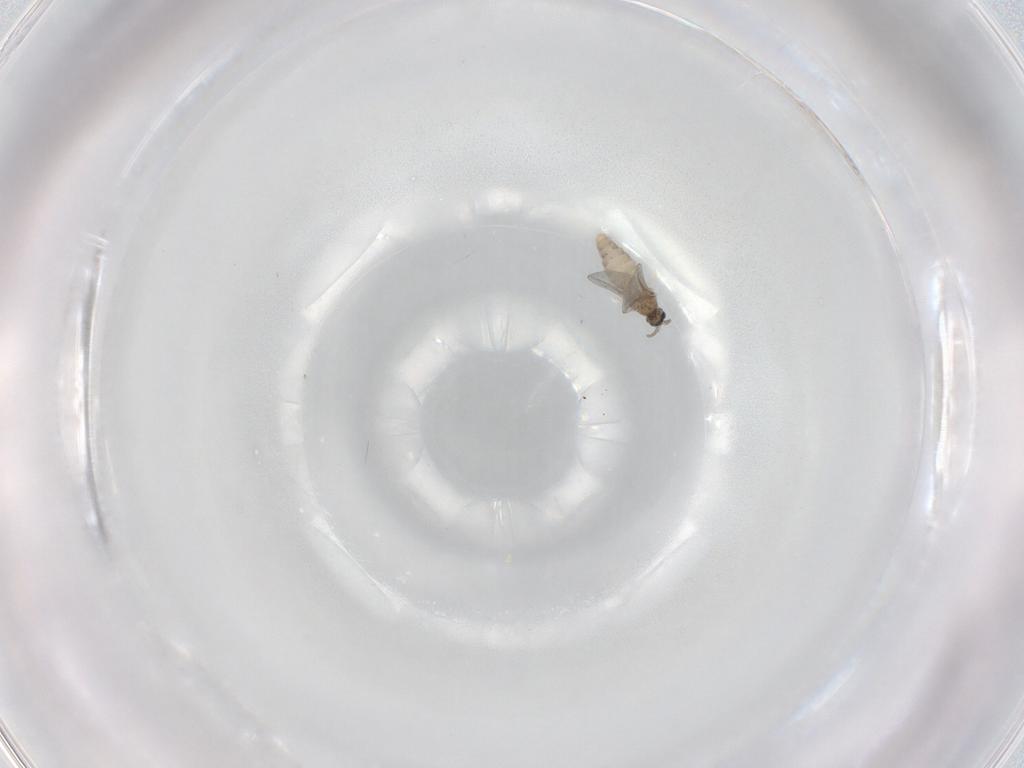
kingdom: Animalia
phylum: Arthropoda
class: Insecta
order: Diptera
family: Cecidomyiidae
